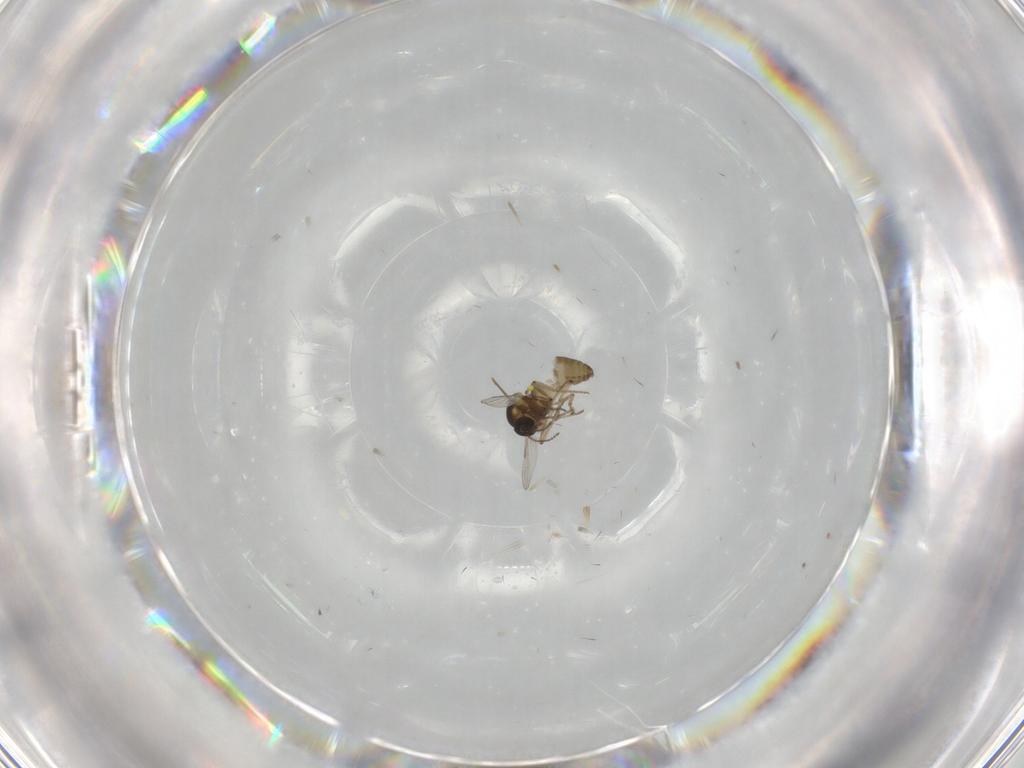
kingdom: Animalia
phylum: Arthropoda
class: Insecta
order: Diptera
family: Ceratopogonidae
